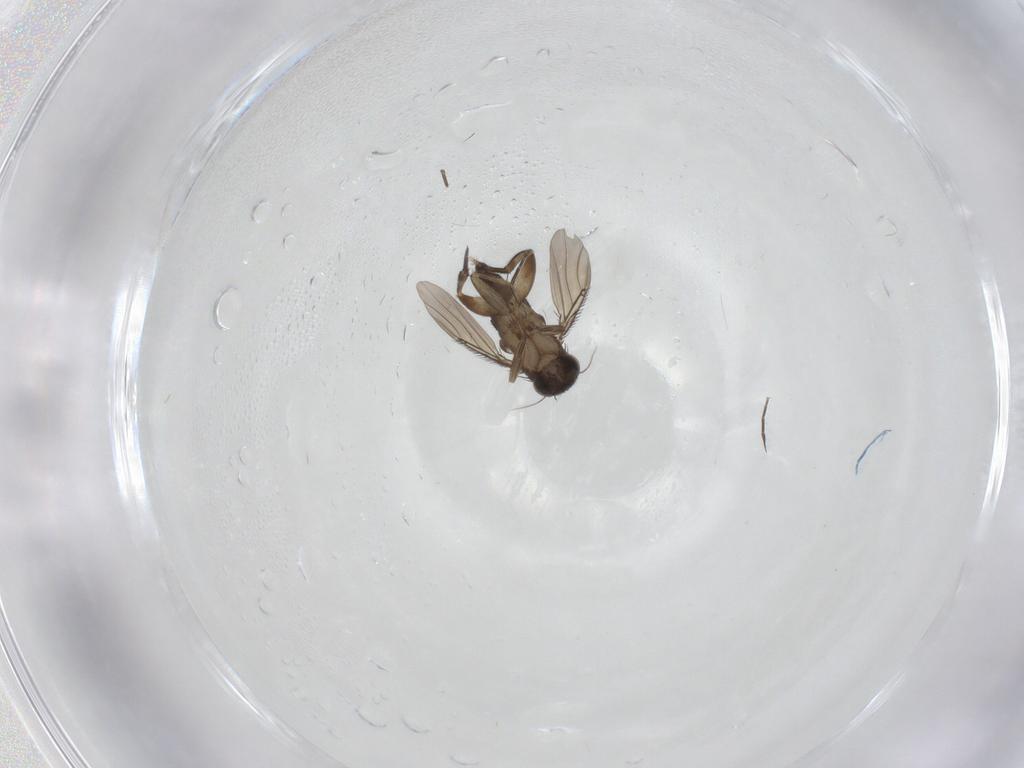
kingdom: Animalia
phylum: Arthropoda
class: Insecta
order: Diptera
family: Phoridae
